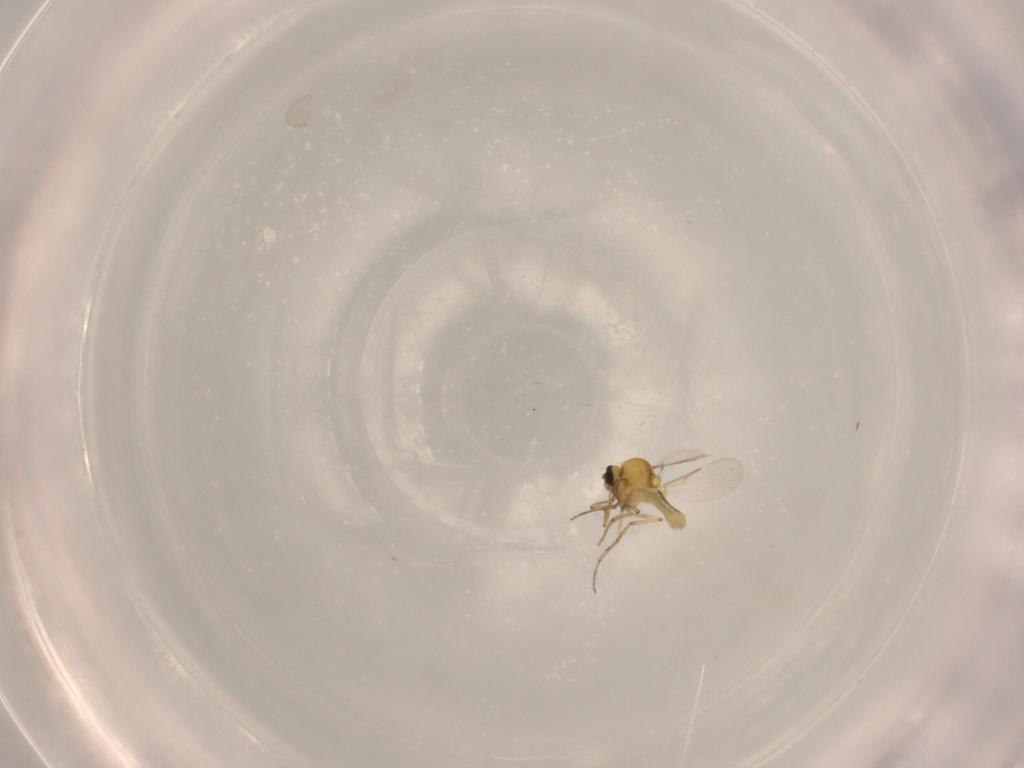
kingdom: Animalia
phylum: Arthropoda
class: Insecta
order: Diptera
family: Ceratopogonidae
